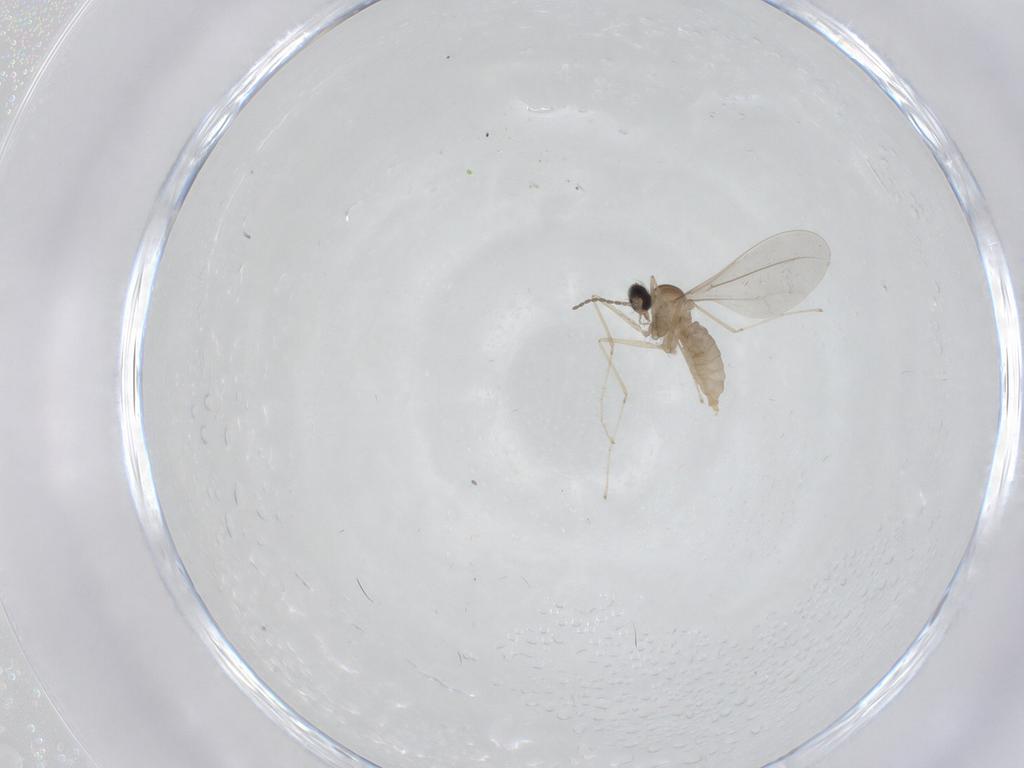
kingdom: Animalia
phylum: Arthropoda
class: Insecta
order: Diptera
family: Cecidomyiidae
